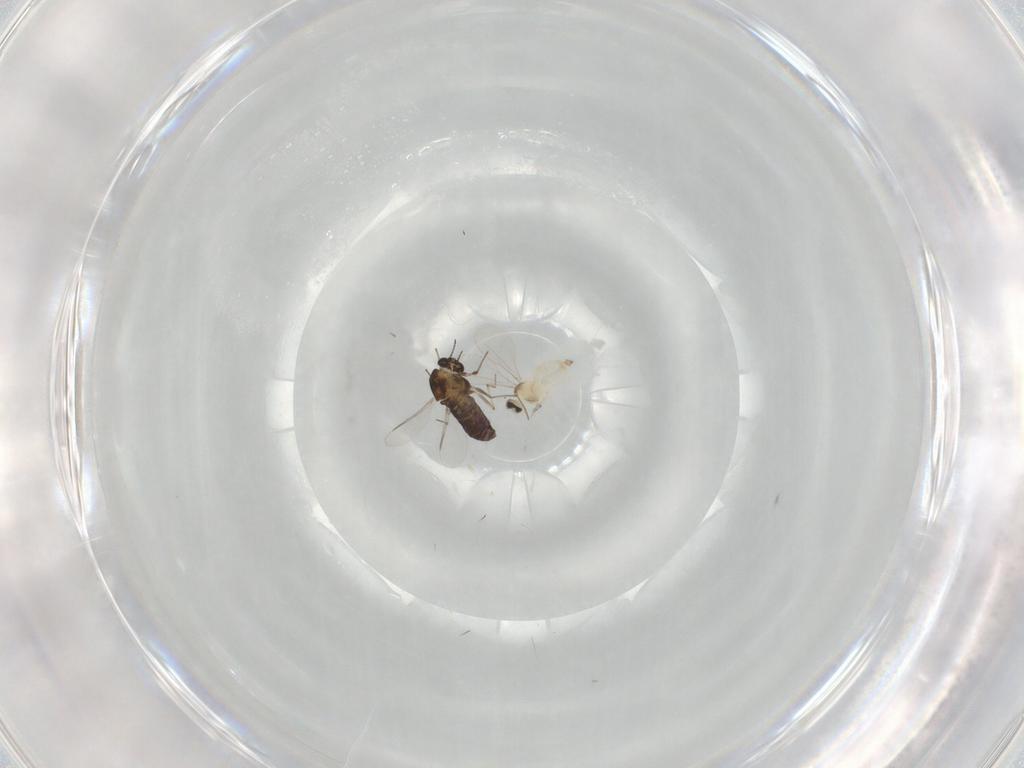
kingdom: Animalia
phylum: Arthropoda
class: Insecta
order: Diptera
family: Chironomidae
